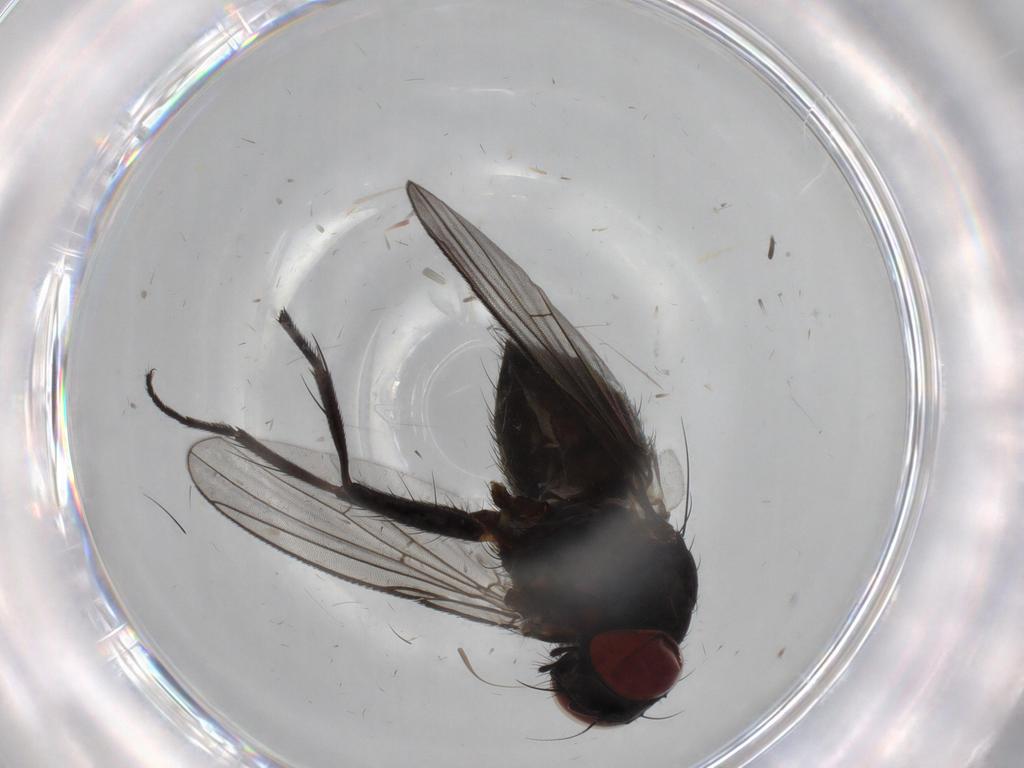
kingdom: Animalia
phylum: Arthropoda
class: Insecta
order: Diptera
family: Muscidae
